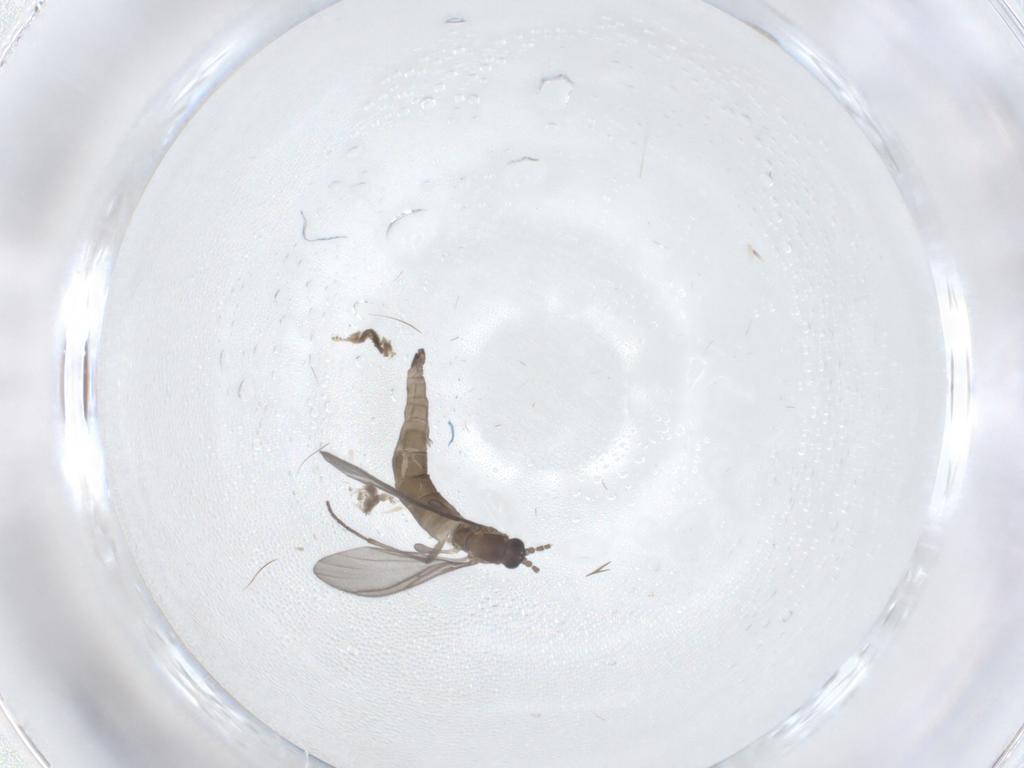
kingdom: Animalia
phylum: Arthropoda
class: Insecta
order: Diptera
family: Sciaridae
